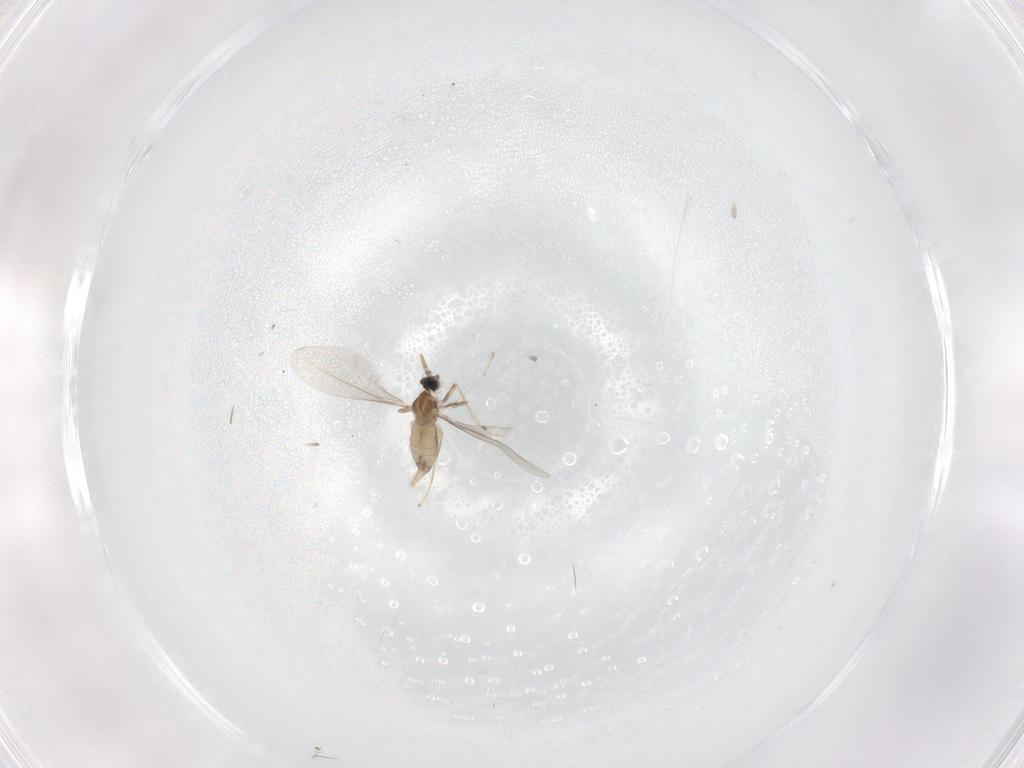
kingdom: Animalia
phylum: Arthropoda
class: Insecta
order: Diptera
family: Cecidomyiidae
